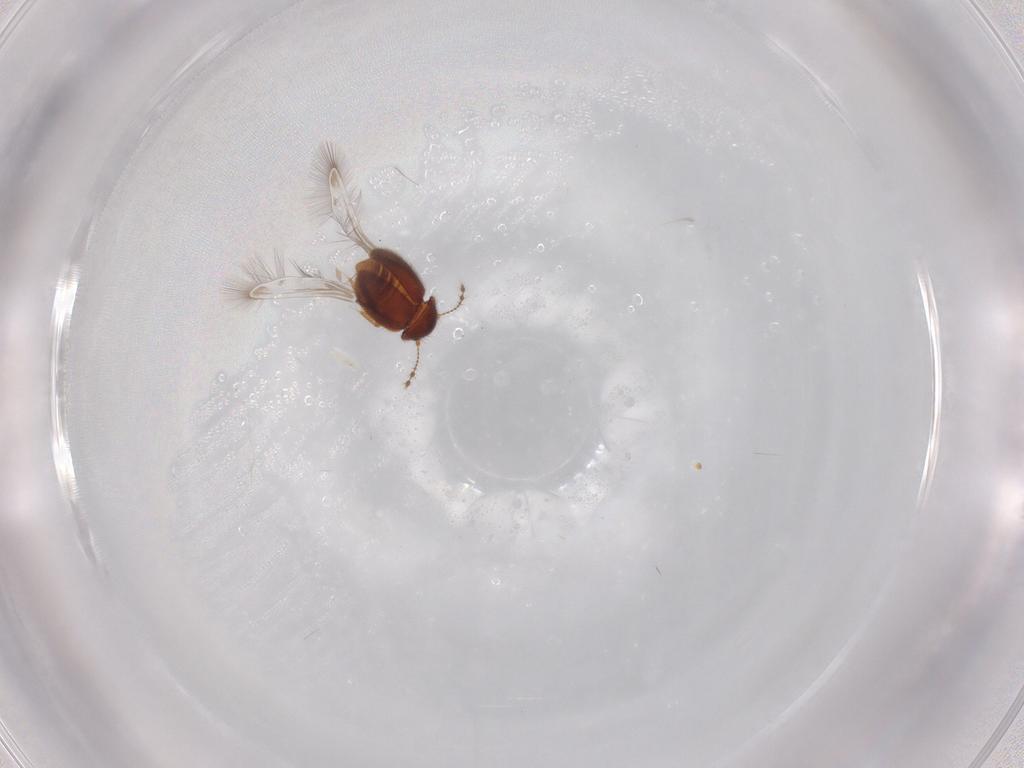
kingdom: Animalia
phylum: Arthropoda
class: Insecta
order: Coleoptera
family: Ptiliidae
